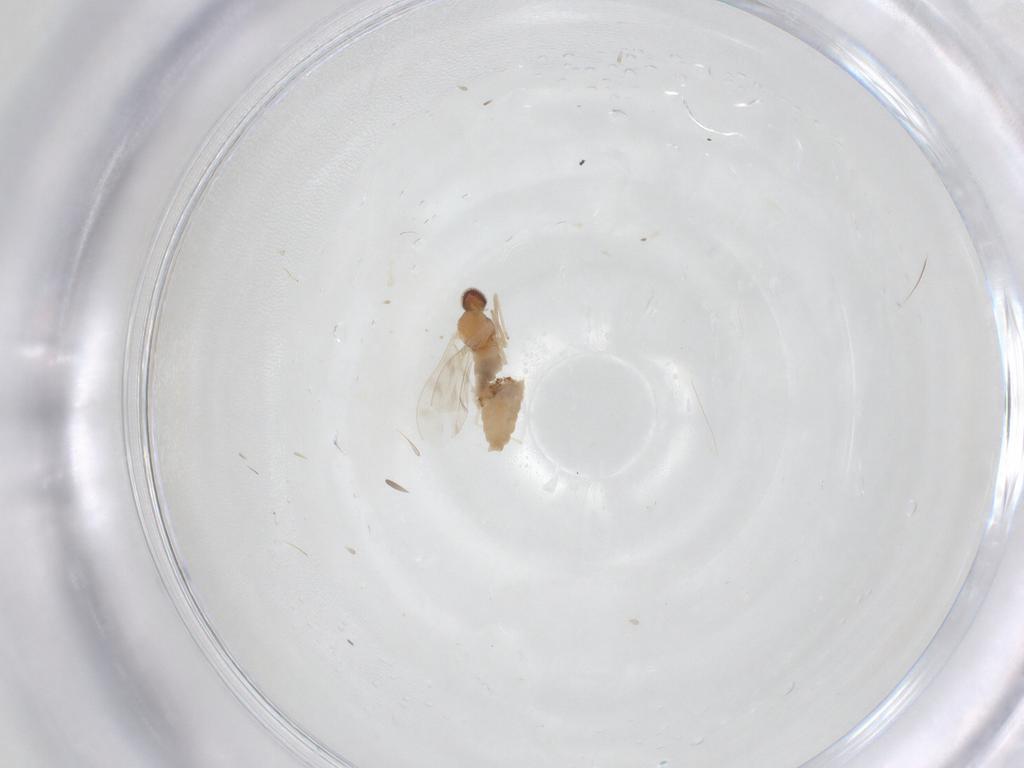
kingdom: Animalia
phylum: Arthropoda
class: Insecta
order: Diptera
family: Cecidomyiidae
